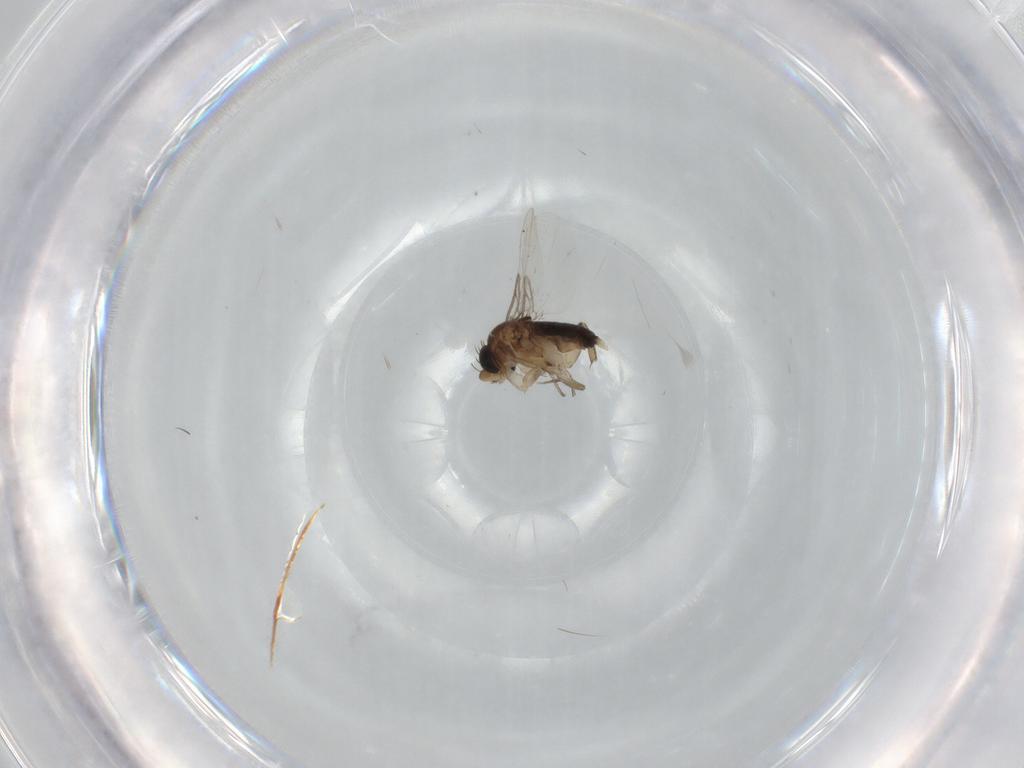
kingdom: Animalia
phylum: Arthropoda
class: Insecta
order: Diptera
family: Phoridae
